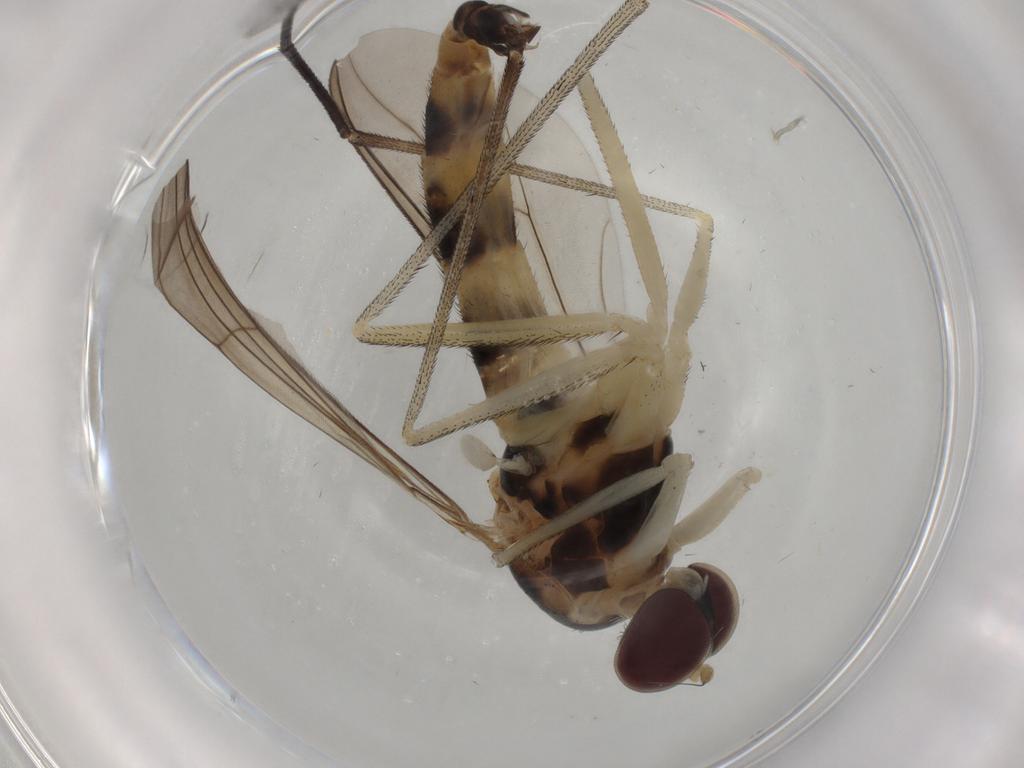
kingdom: Animalia
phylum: Arthropoda
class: Insecta
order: Diptera
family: Syrphidae
